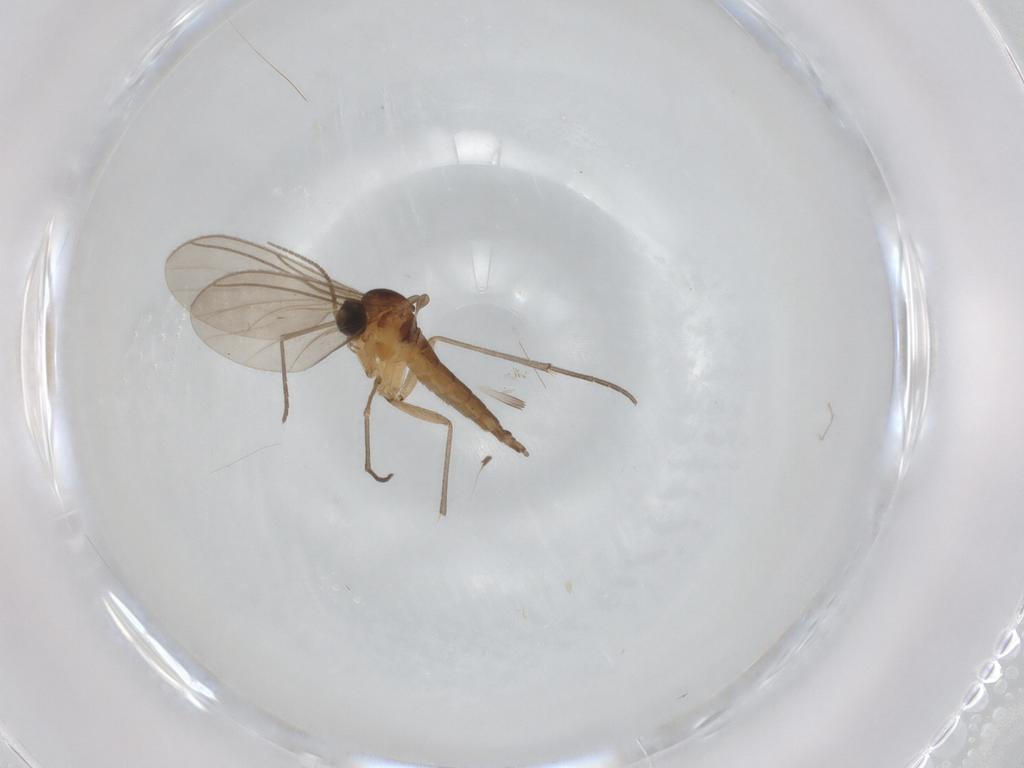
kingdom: Animalia
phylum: Arthropoda
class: Insecta
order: Diptera
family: Sciaridae
